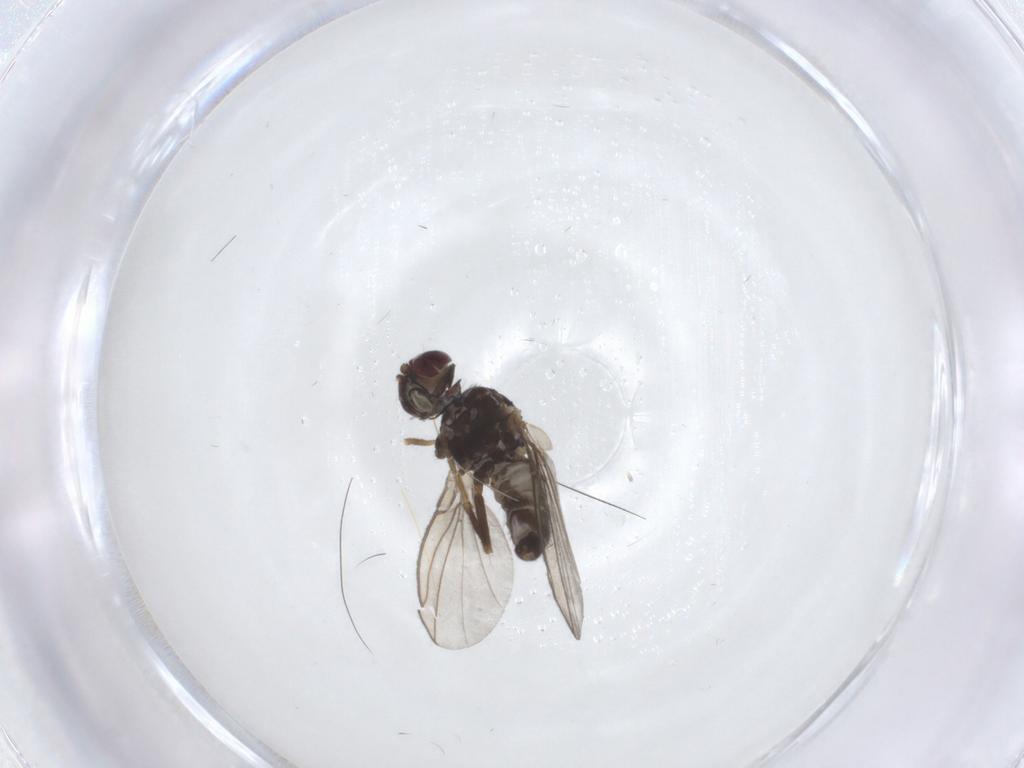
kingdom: Animalia
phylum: Arthropoda
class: Insecta
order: Diptera
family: Agromyzidae
